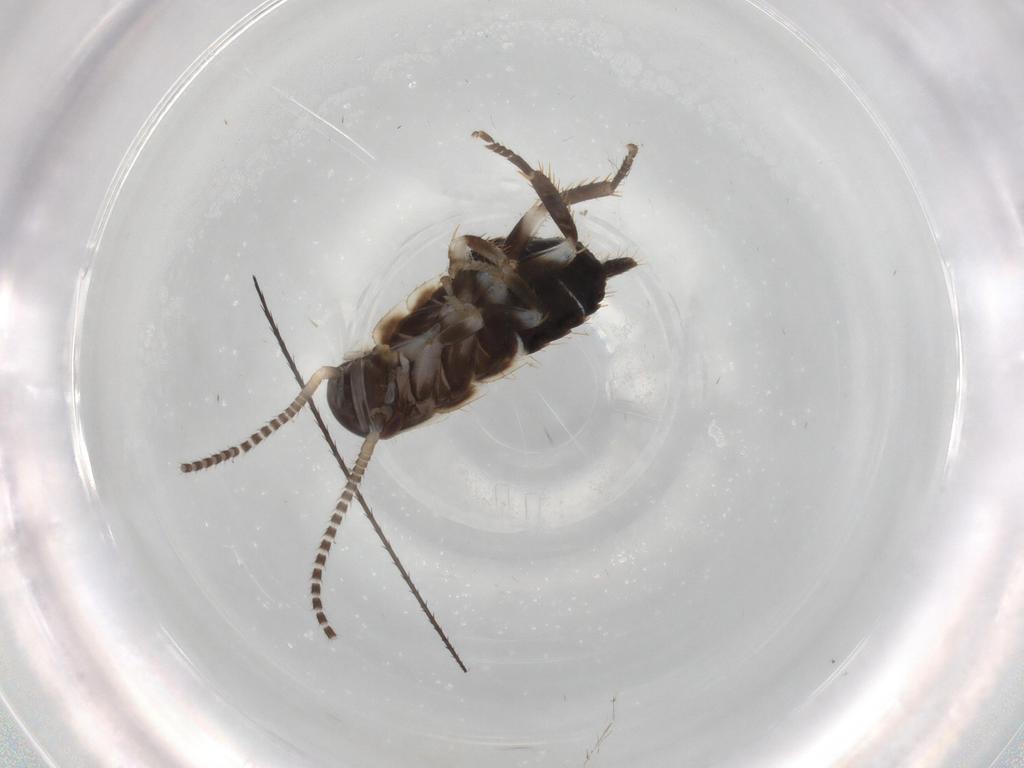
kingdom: Animalia
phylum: Arthropoda
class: Insecta
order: Blattodea
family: Ectobiidae
